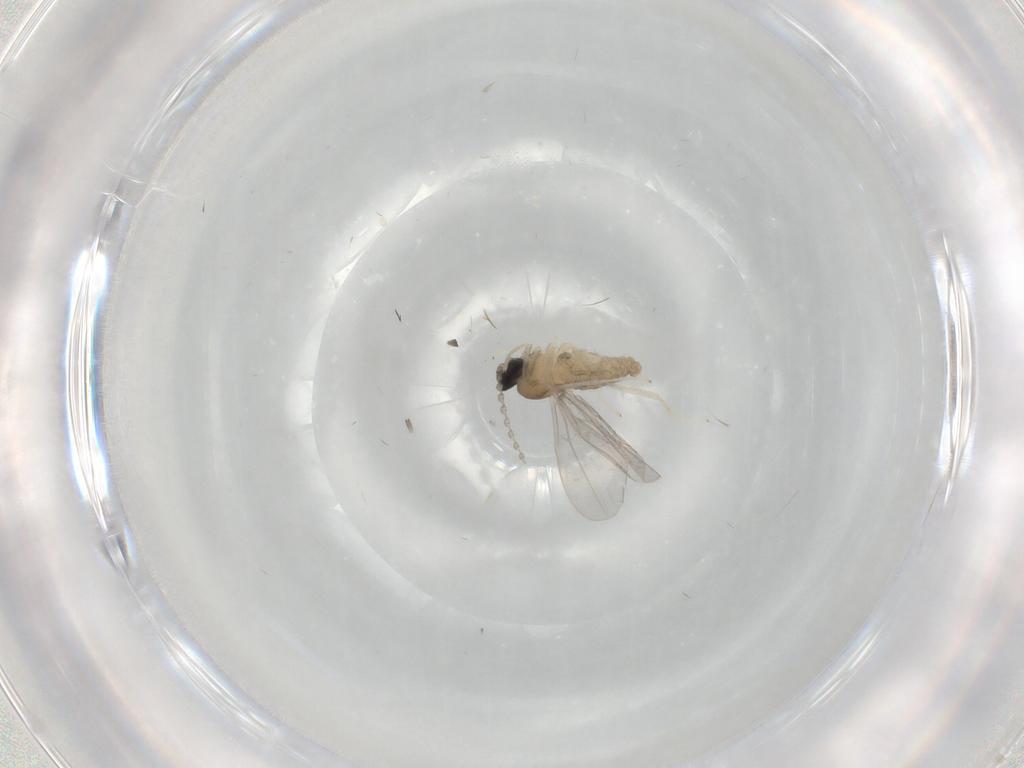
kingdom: Animalia
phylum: Arthropoda
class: Insecta
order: Diptera
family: Cecidomyiidae
